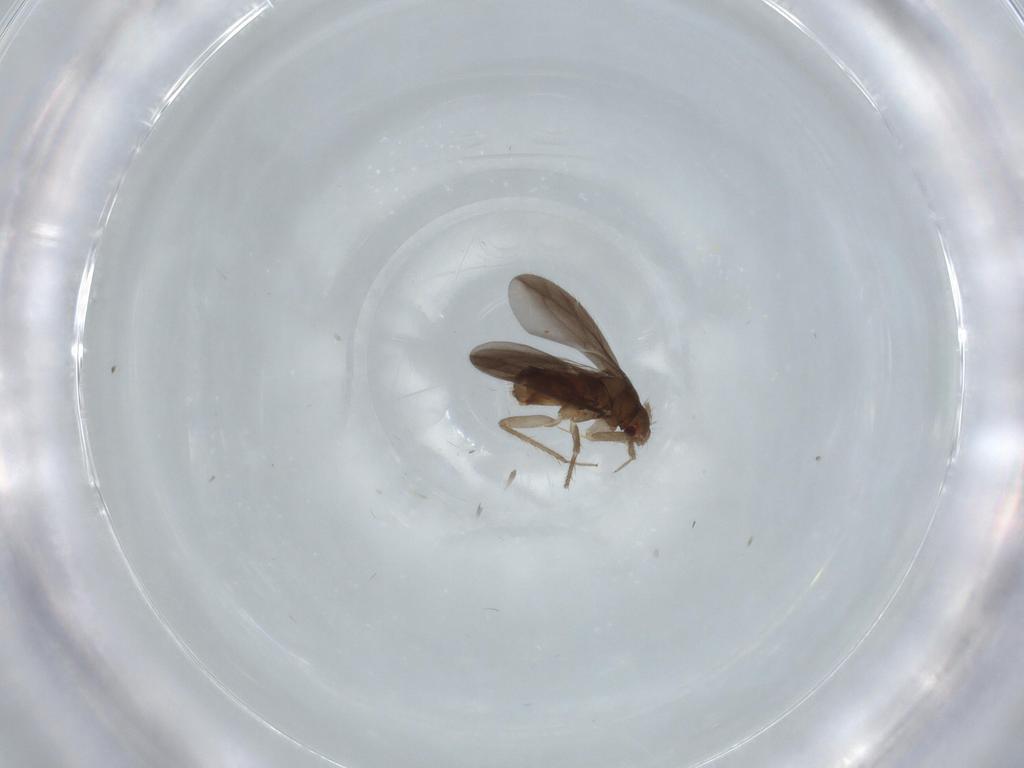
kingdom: Animalia
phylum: Arthropoda
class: Insecta
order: Hemiptera
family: Ceratocombidae
